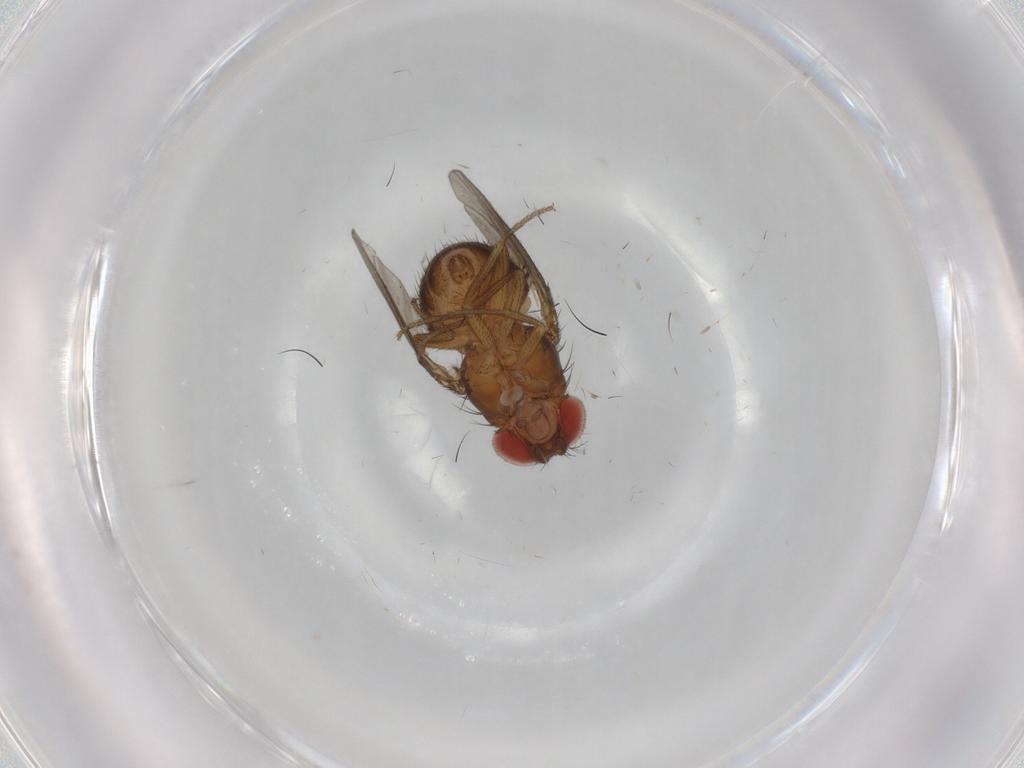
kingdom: Animalia
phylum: Arthropoda
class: Insecta
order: Diptera
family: Drosophilidae
